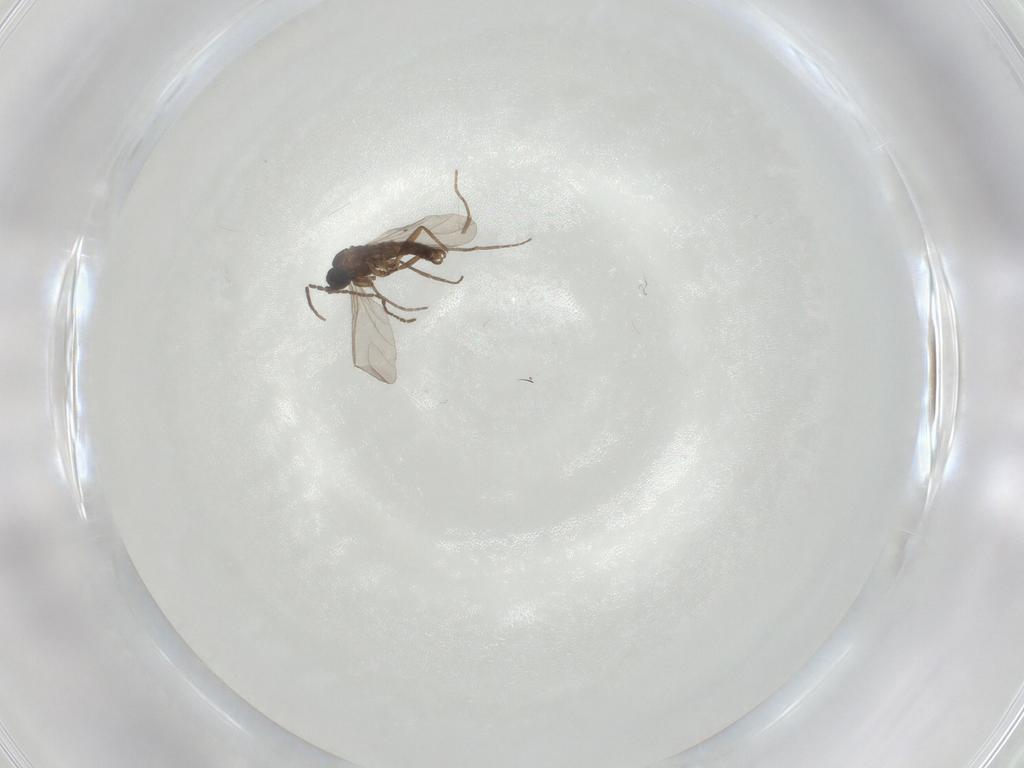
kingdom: Animalia
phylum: Arthropoda
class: Insecta
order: Diptera
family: Sciaridae
